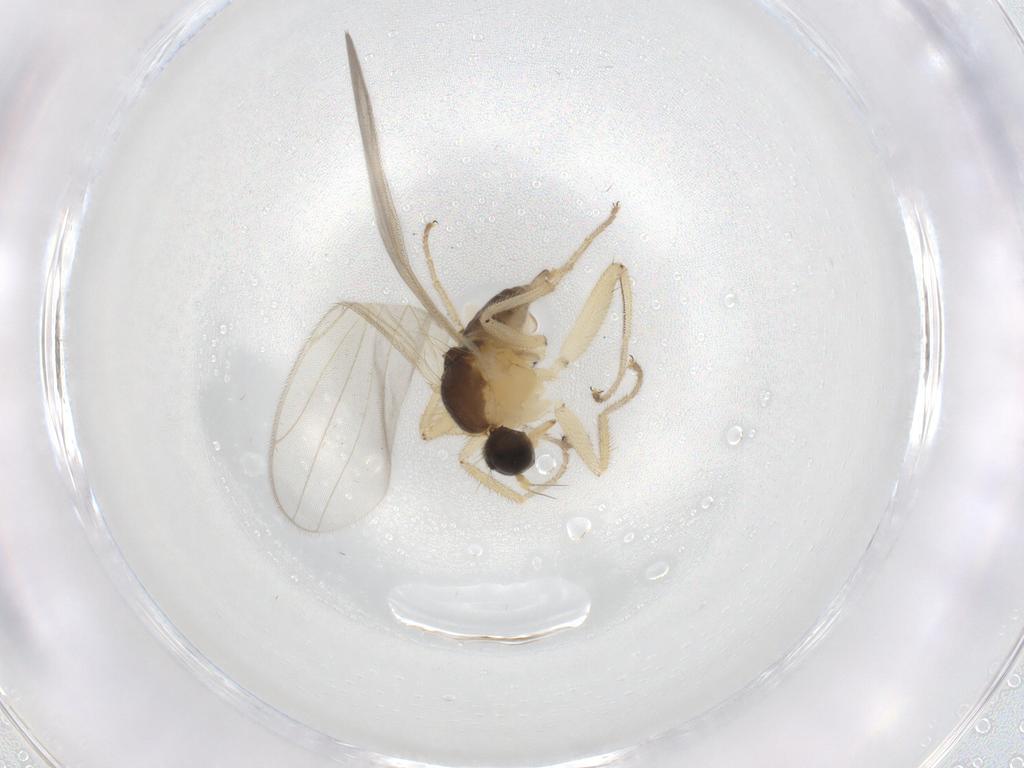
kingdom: Animalia
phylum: Arthropoda
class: Insecta
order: Diptera
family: Hybotidae
